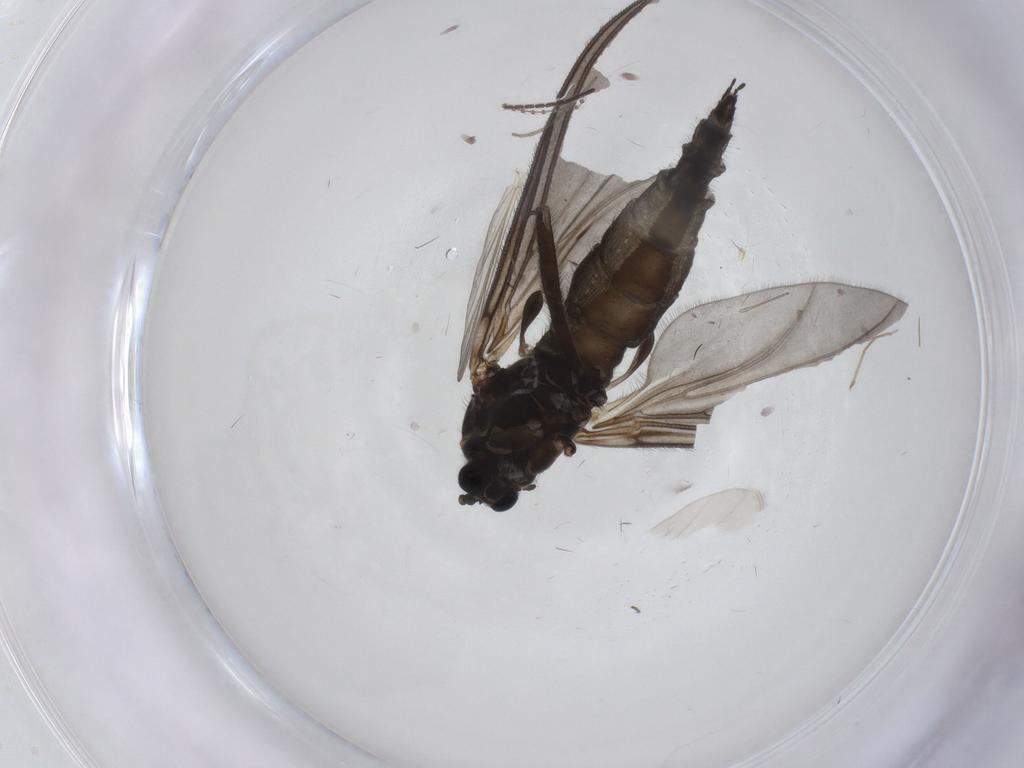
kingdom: Animalia
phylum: Arthropoda
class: Insecta
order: Diptera
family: Chironomidae
